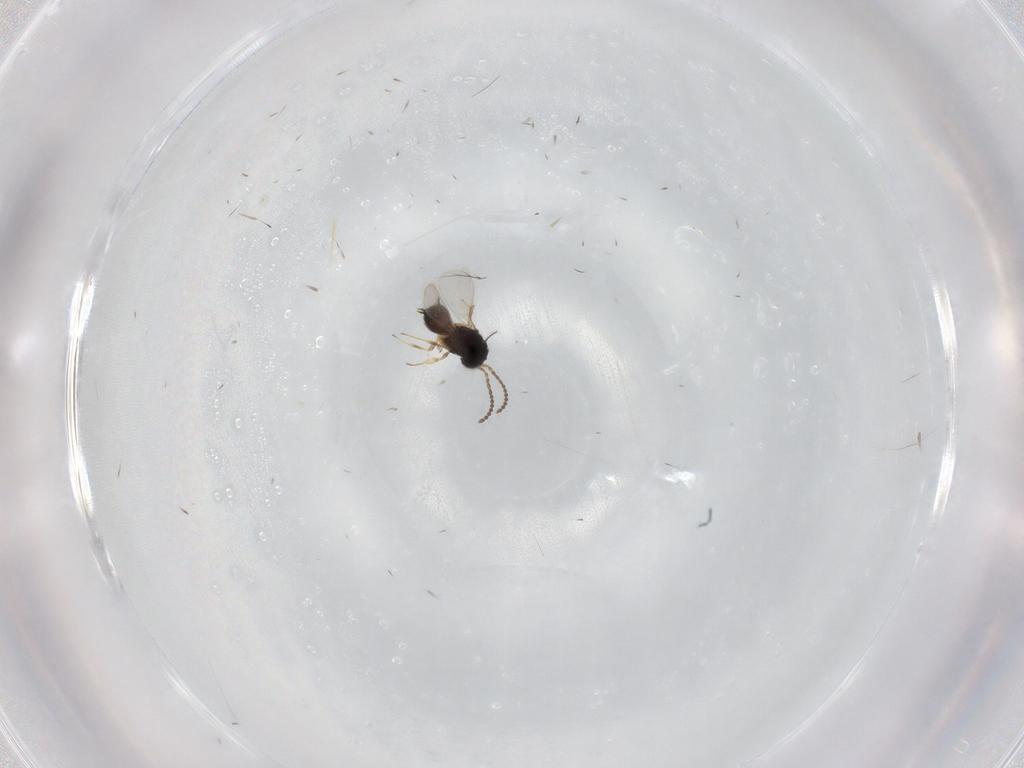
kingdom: Animalia
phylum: Arthropoda
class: Insecta
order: Hymenoptera
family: Scelionidae
